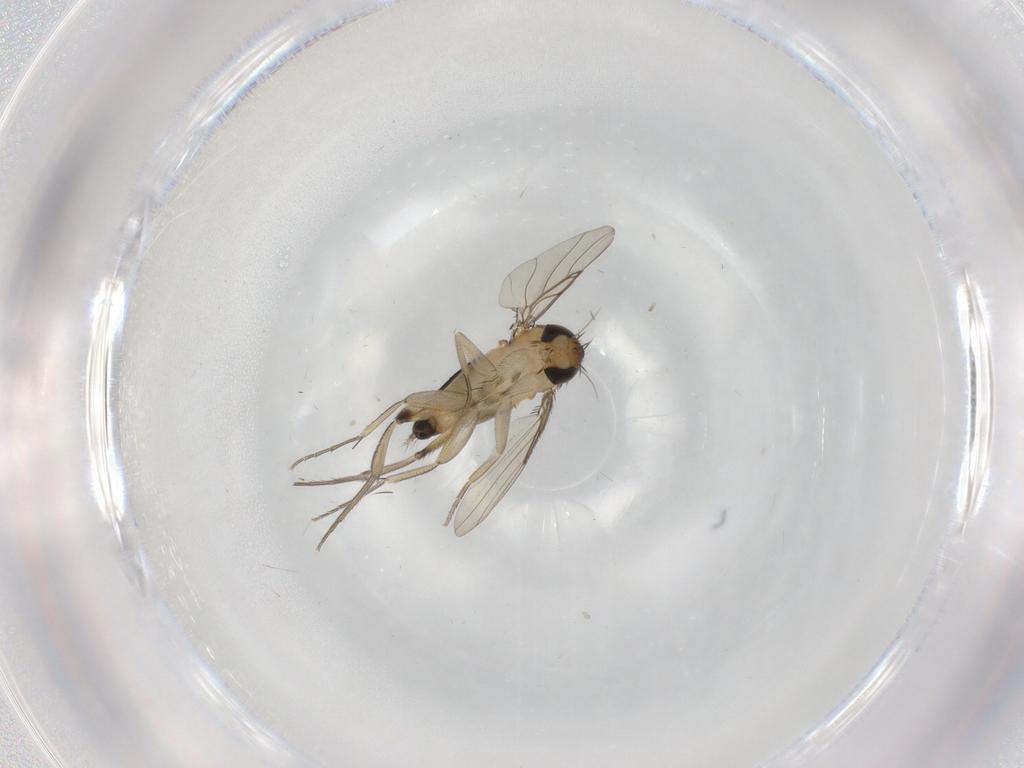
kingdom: Animalia
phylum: Arthropoda
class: Insecta
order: Diptera
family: Phoridae
